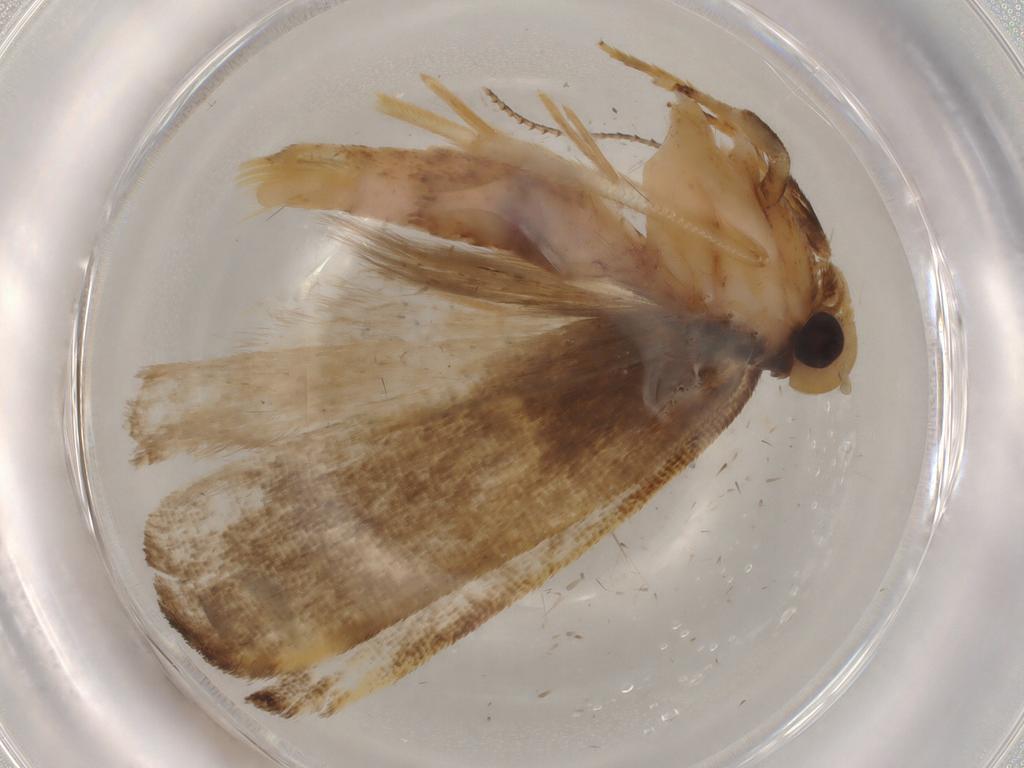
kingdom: Animalia
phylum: Arthropoda
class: Insecta
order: Lepidoptera
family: Gelechiidae
